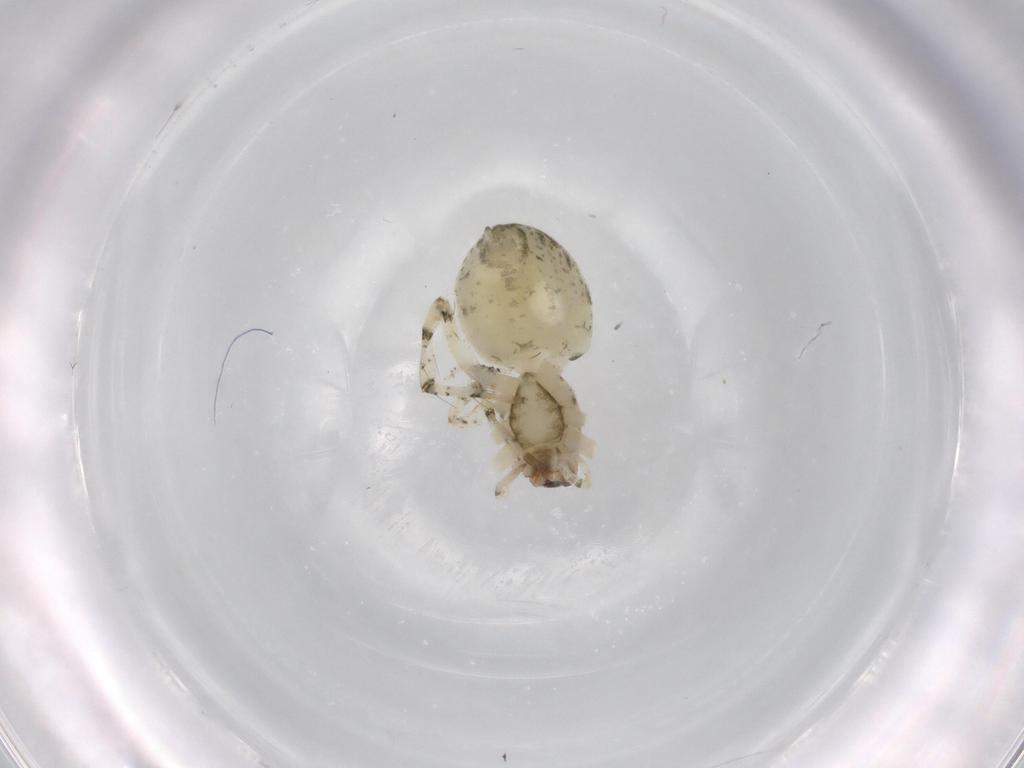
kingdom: Animalia
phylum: Arthropoda
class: Arachnida
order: Araneae
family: Anyphaenidae
